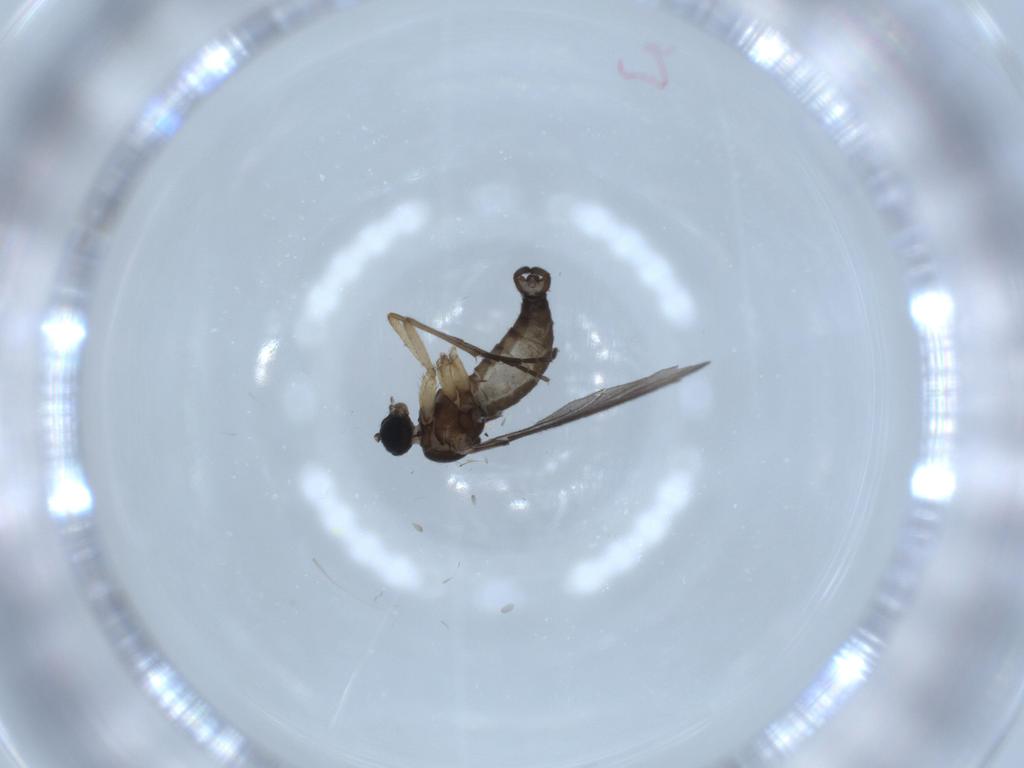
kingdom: Animalia
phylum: Arthropoda
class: Insecta
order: Diptera
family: Sciaridae
